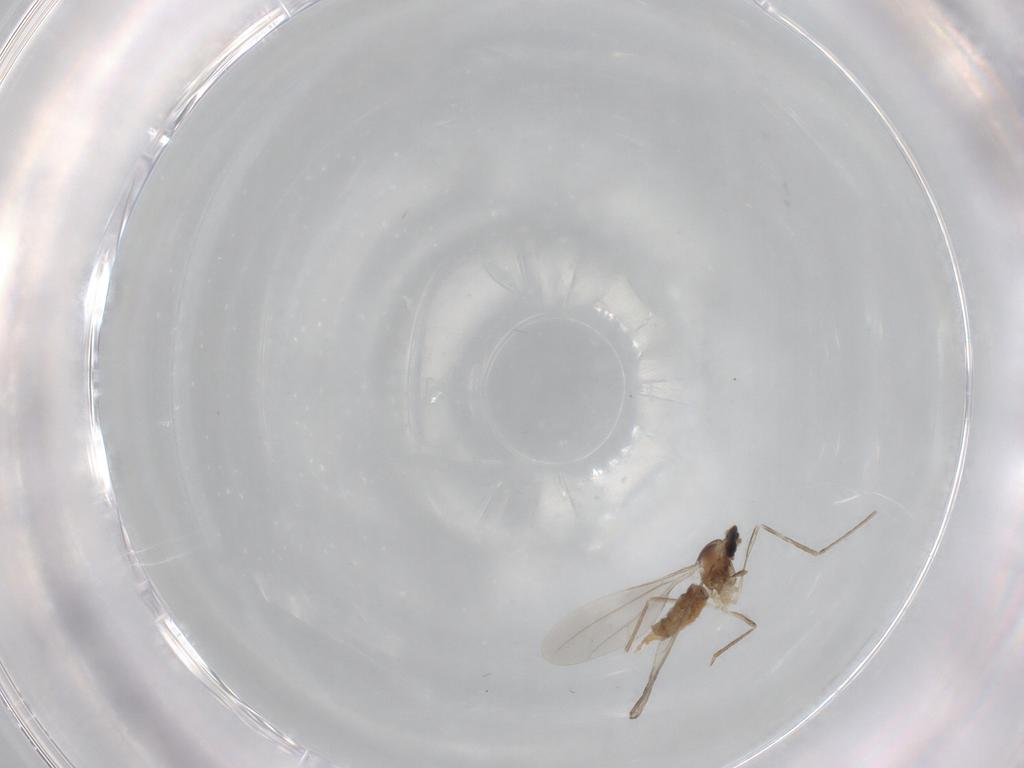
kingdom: Animalia
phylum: Arthropoda
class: Insecta
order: Diptera
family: Cecidomyiidae
